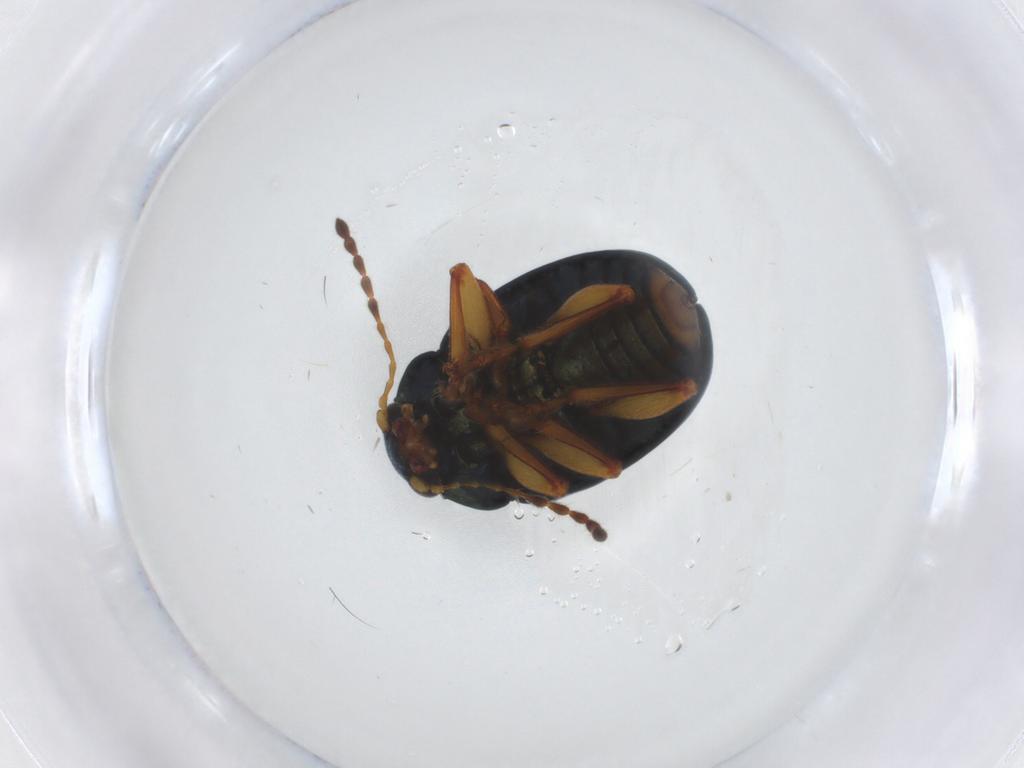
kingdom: Animalia
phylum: Arthropoda
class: Insecta
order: Coleoptera
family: Chrysomelidae
